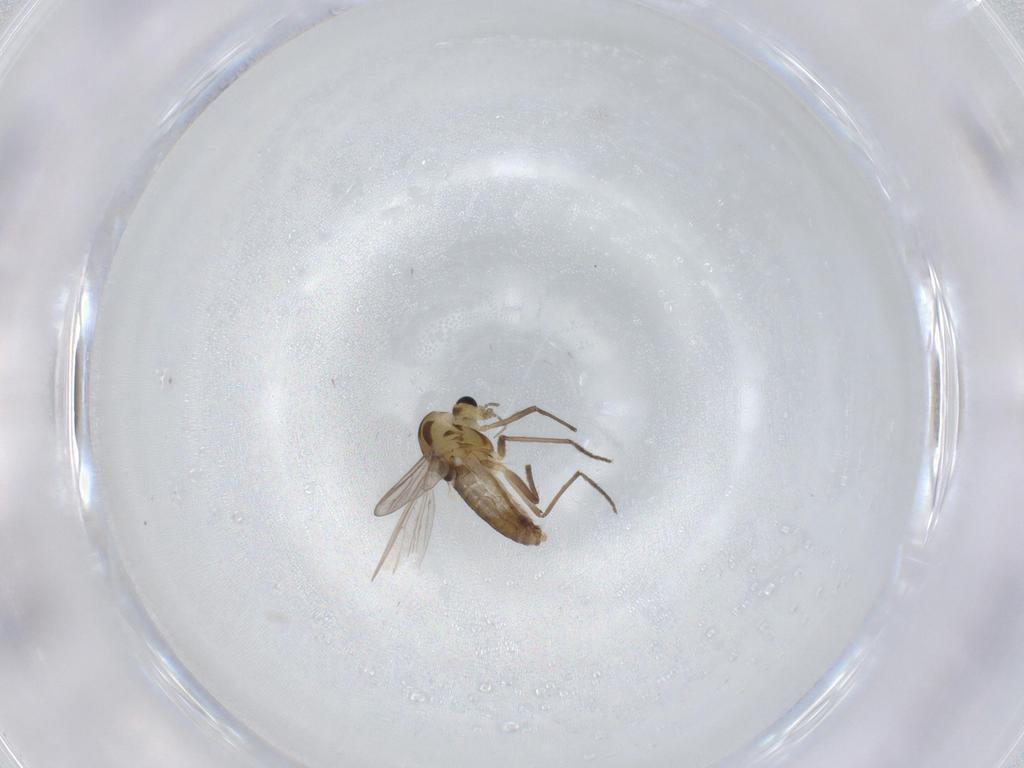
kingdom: Animalia
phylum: Arthropoda
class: Insecta
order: Diptera
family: Chironomidae
